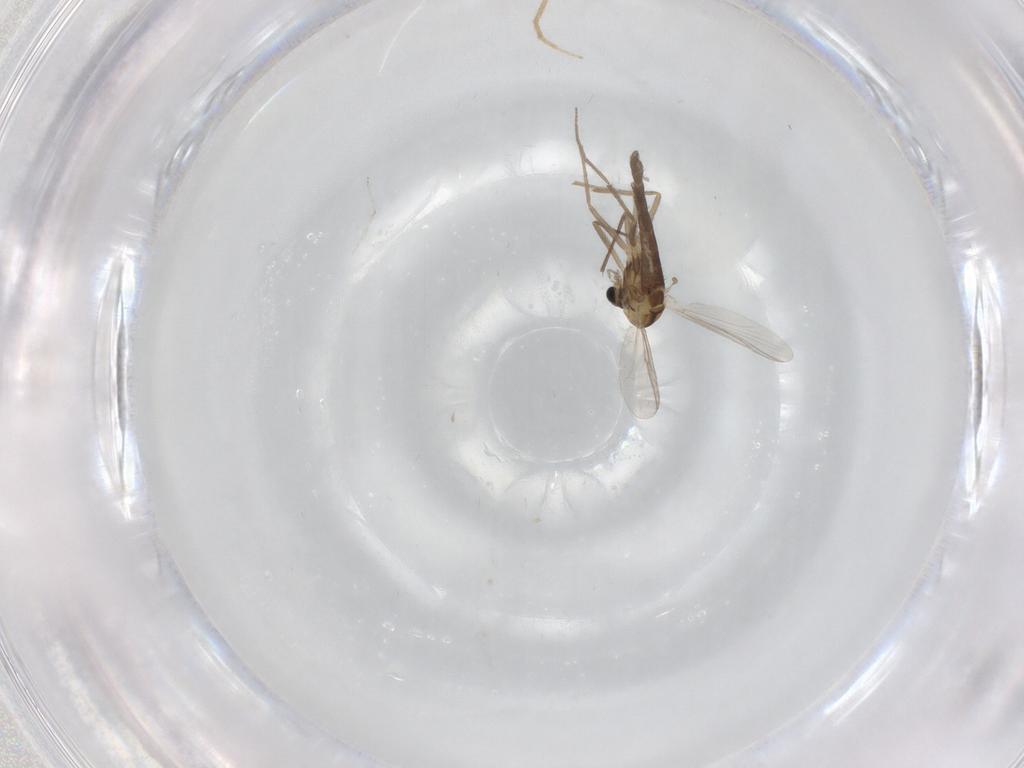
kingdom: Animalia
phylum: Arthropoda
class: Insecta
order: Diptera
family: Chironomidae
